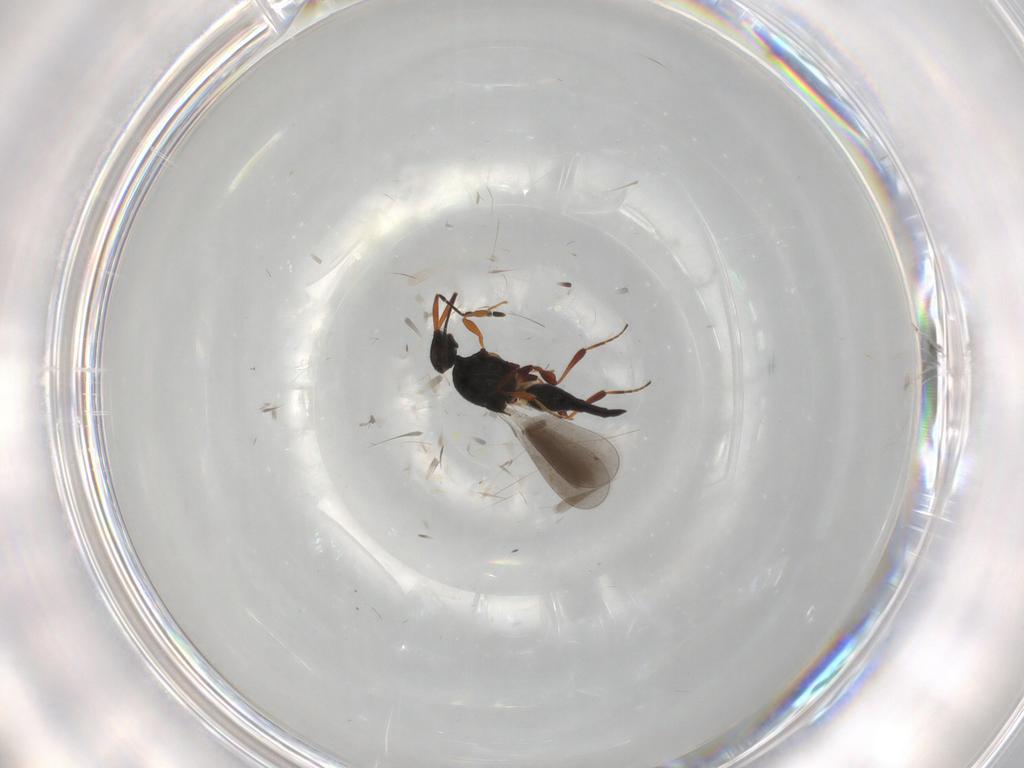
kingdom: Animalia
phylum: Arthropoda
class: Insecta
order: Hymenoptera
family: Platygastridae
